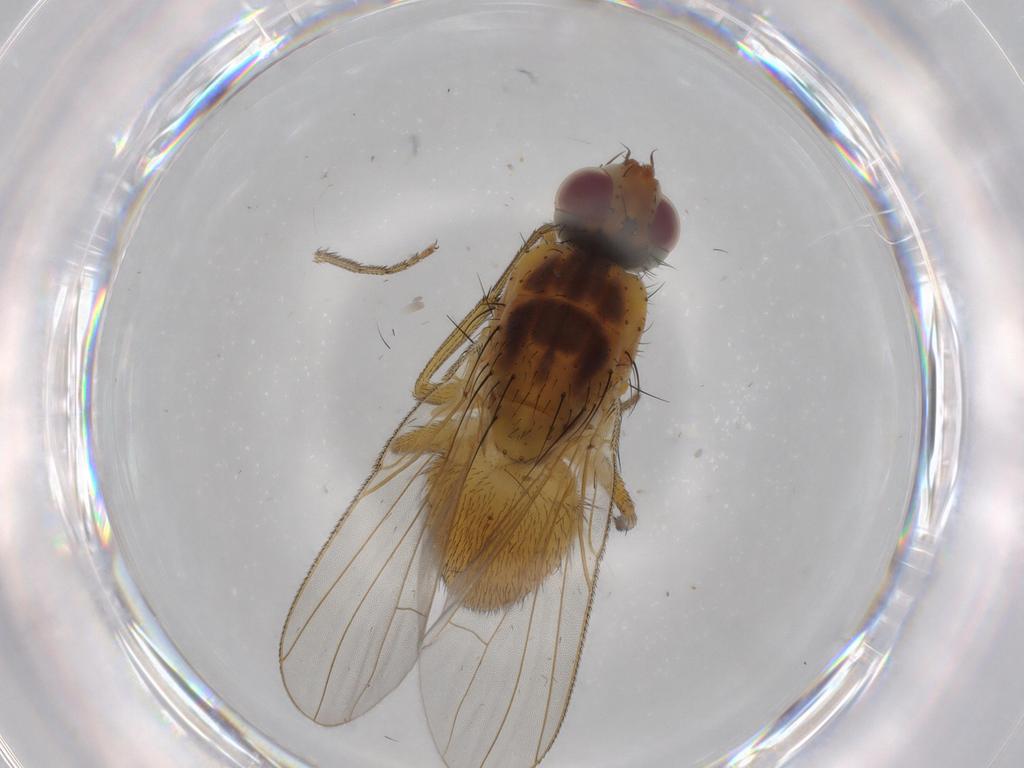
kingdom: Animalia
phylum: Arthropoda
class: Insecta
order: Diptera
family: Muscidae
